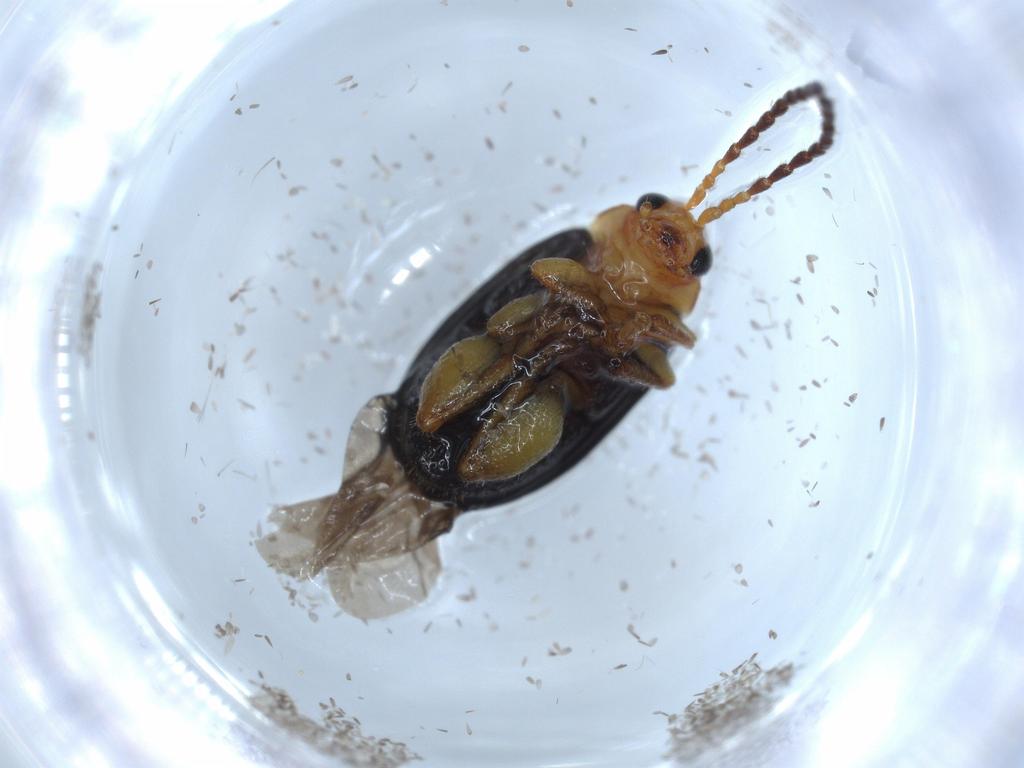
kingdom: Animalia
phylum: Arthropoda
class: Insecta
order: Coleoptera
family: Chrysomelidae
